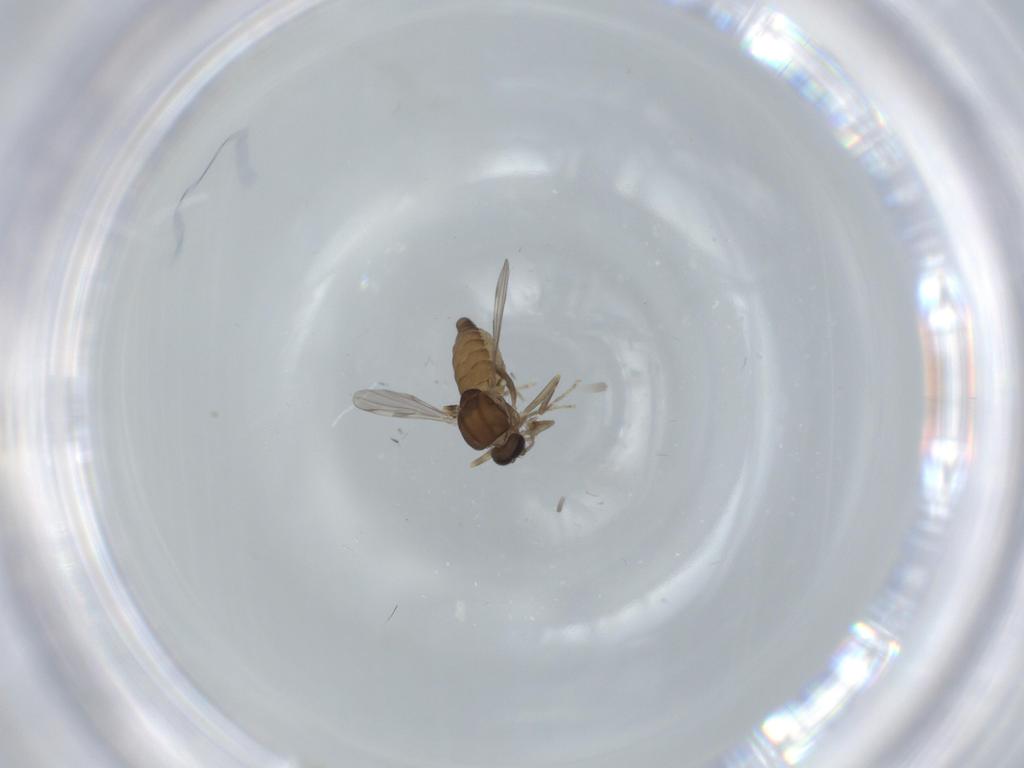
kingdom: Animalia
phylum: Arthropoda
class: Insecta
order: Diptera
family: Ceratopogonidae
